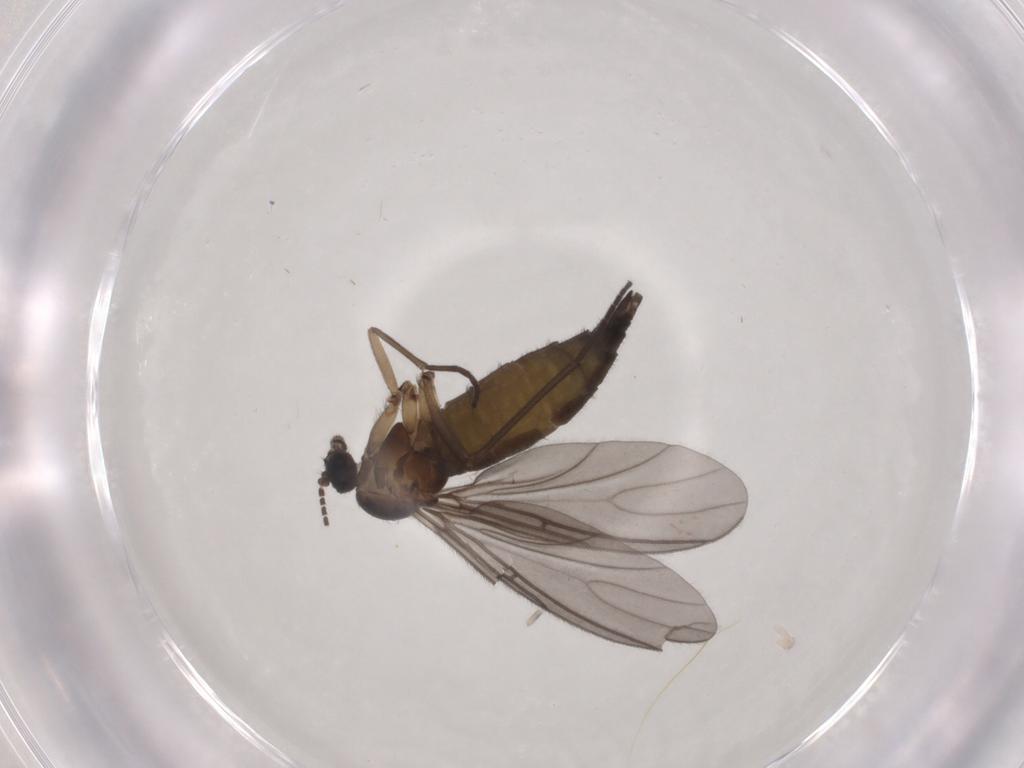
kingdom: Animalia
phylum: Arthropoda
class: Insecta
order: Diptera
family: Sciaridae
